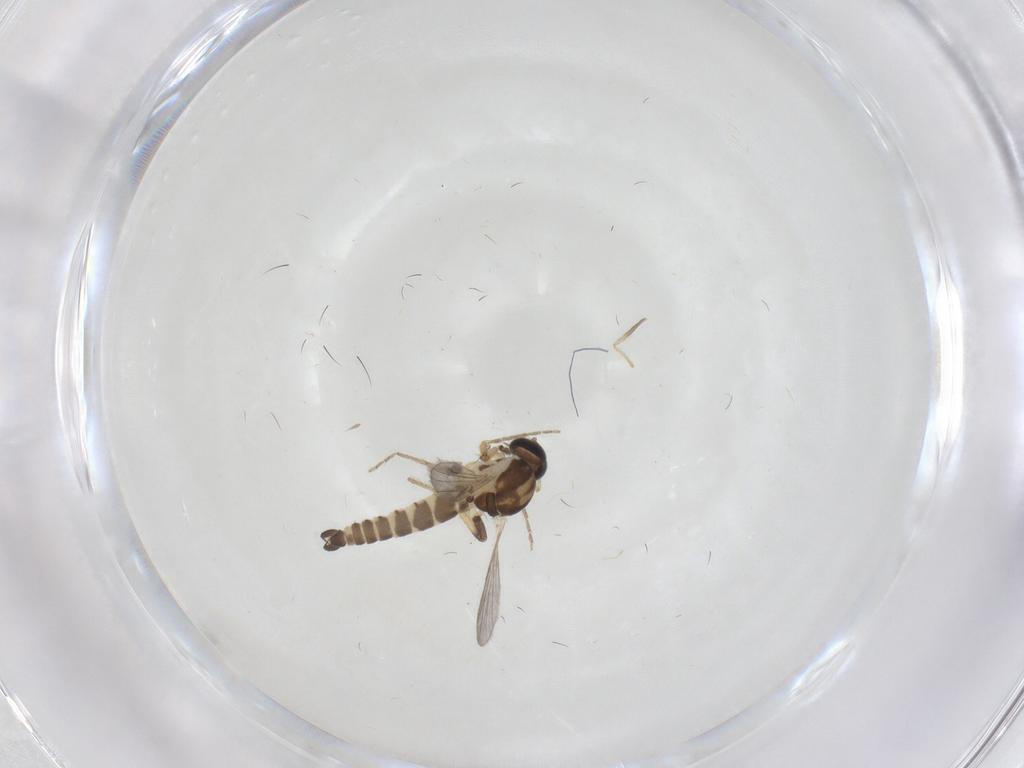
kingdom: Animalia
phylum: Arthropoda
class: Insecta
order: Diptera
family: Ceratopogonidae
